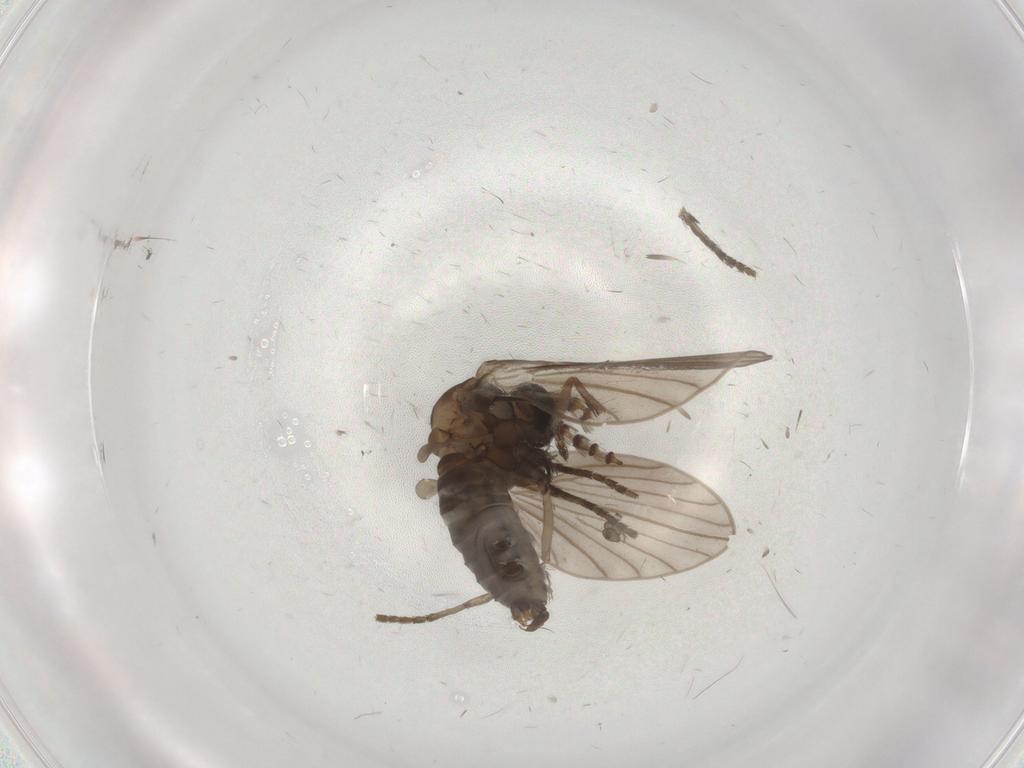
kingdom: Animalia
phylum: Arthropoda
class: Insecta
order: Diptera
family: Psychodidae
